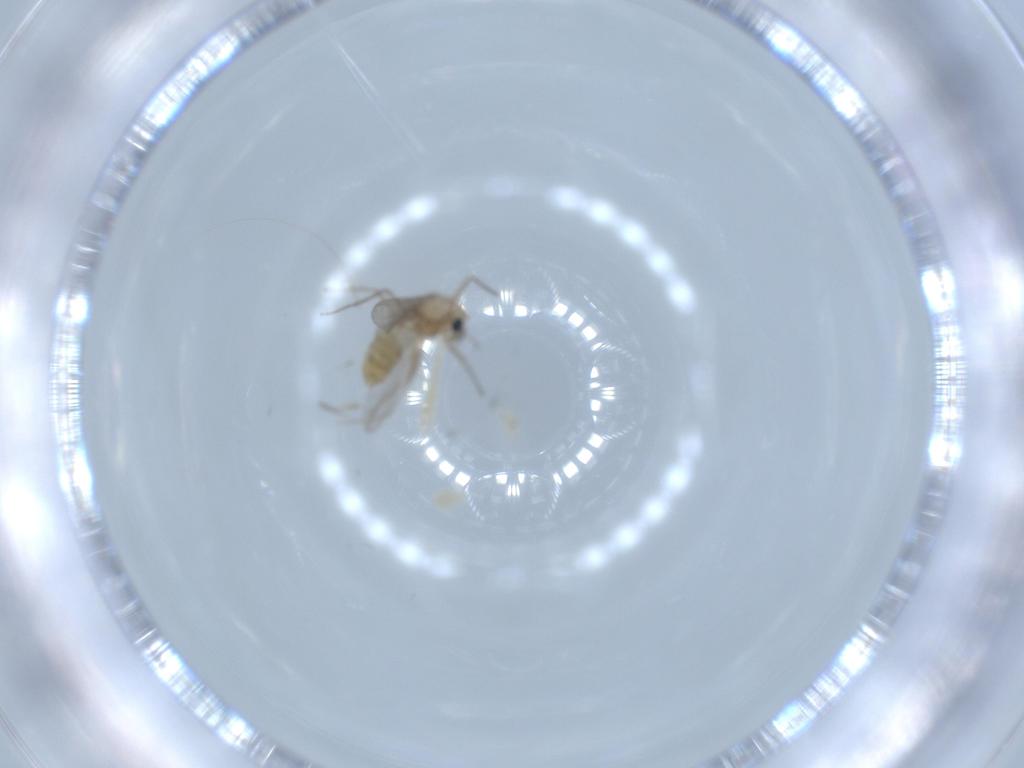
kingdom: Animalia
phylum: Arthropoda
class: Insecta
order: Diptera
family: Chironomidae
